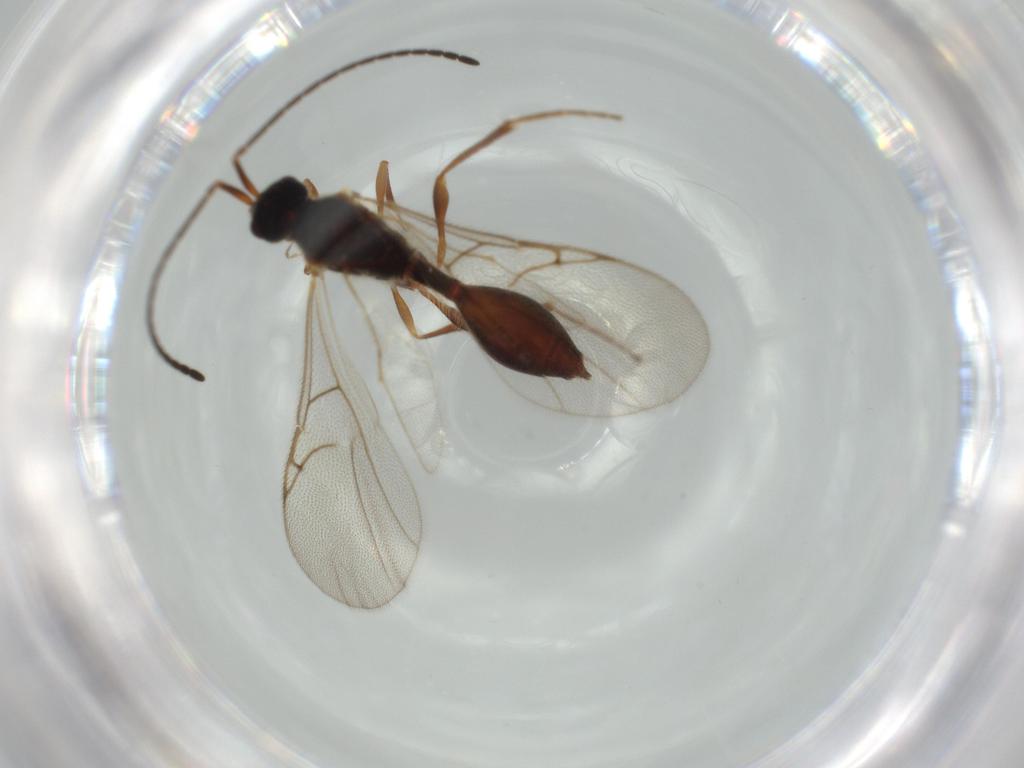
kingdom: Animalia
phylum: Arthropoda
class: Insecta
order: Hymenoptera
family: Diapriidae
